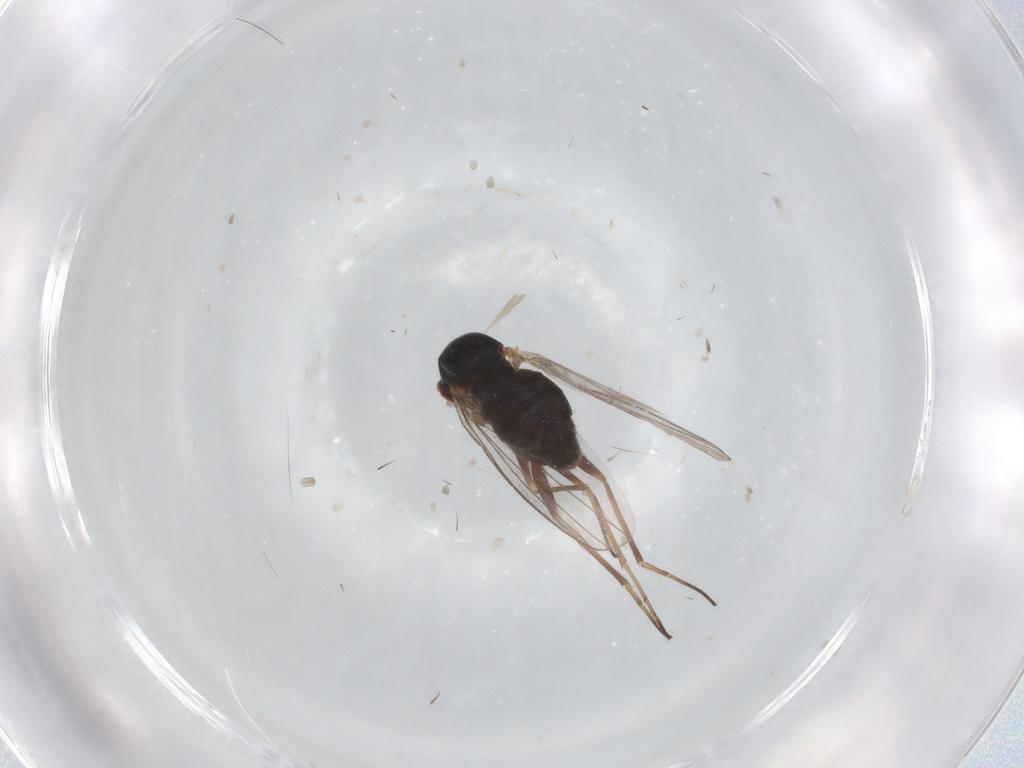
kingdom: Animalia
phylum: Arthropoda
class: Insecta
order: Diptera
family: Dolichopodidae
